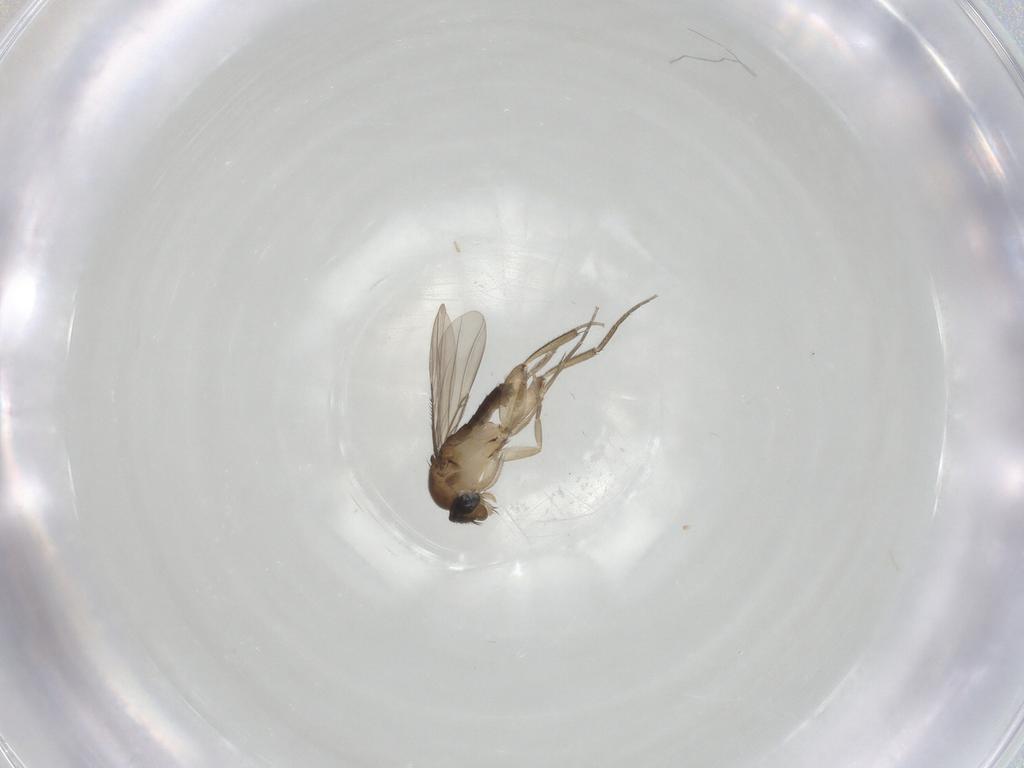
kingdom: Animalia
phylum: Arthropoda
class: Insecta
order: Diptera
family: Phoridae
